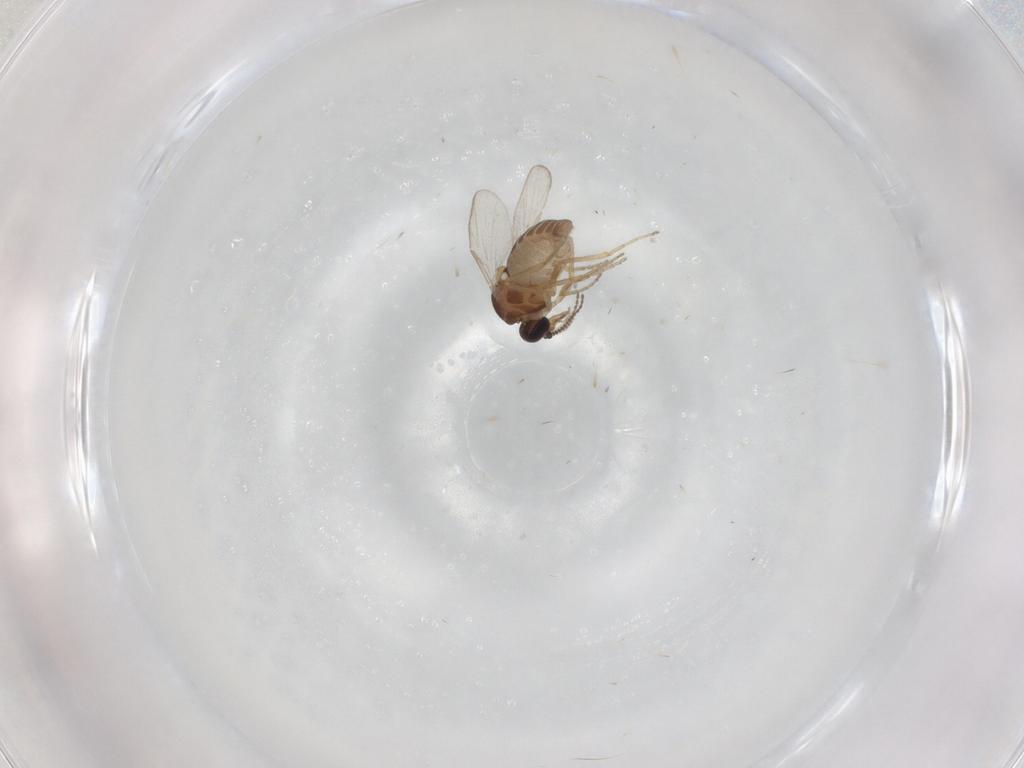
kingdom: Animalia
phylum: Arthropoda
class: Insecta
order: Diptera
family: Ceratopogonidae
